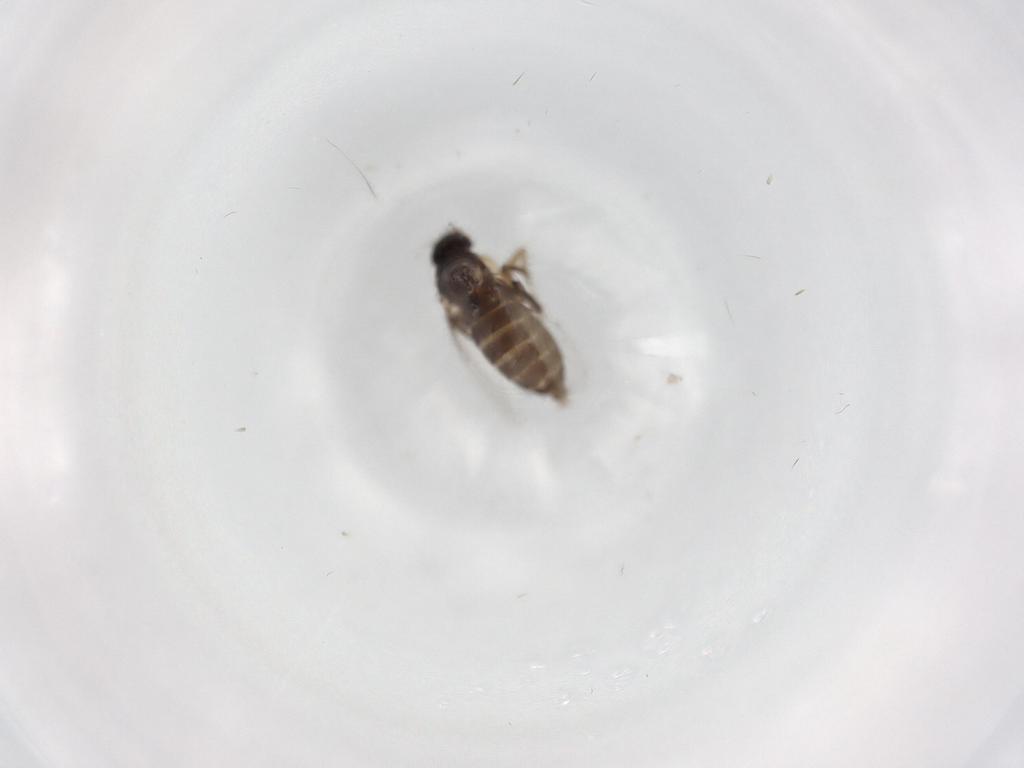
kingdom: Animalia
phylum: Arthropoda
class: Insecta
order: Diptera
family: Phoridae
